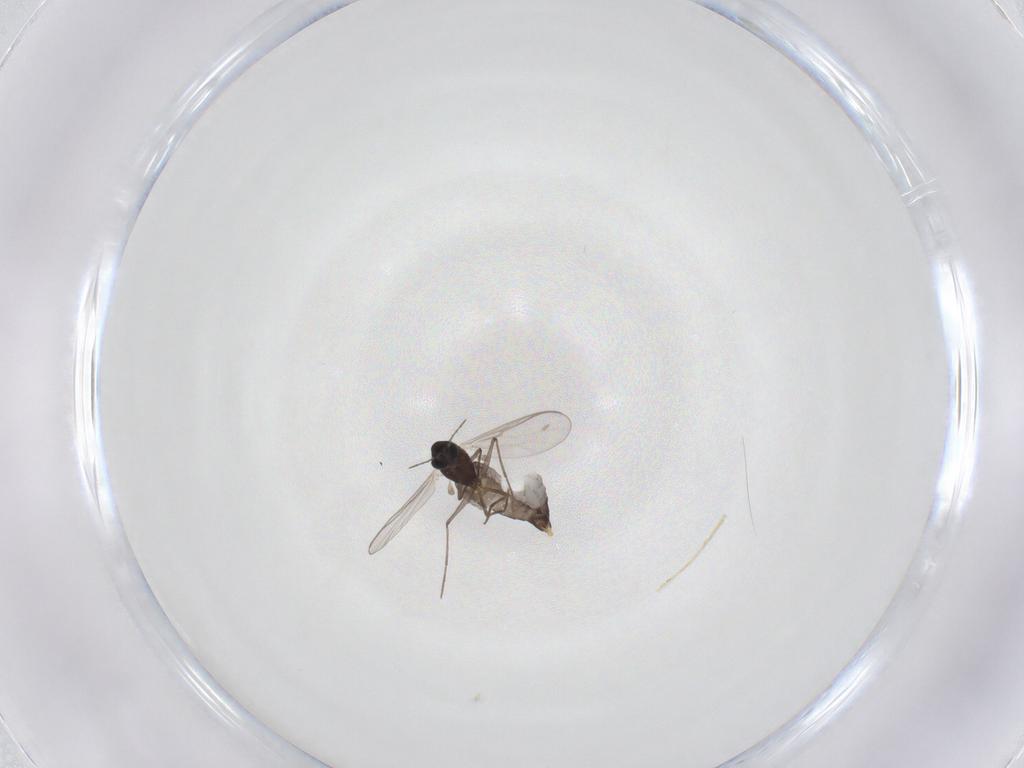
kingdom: Animalia
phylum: Arthropoda
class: Insecta
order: Diptera
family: Chironomidae
